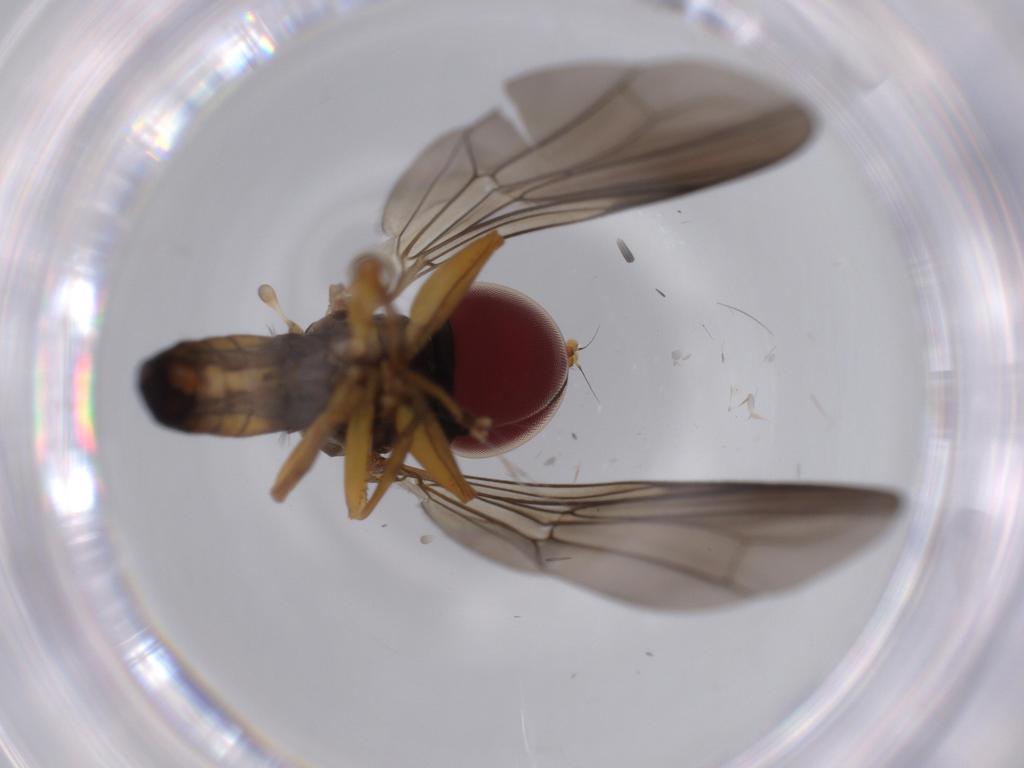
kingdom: Animalia
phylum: Arthropoda
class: Insecta
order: Diptera
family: Pipunculidae
